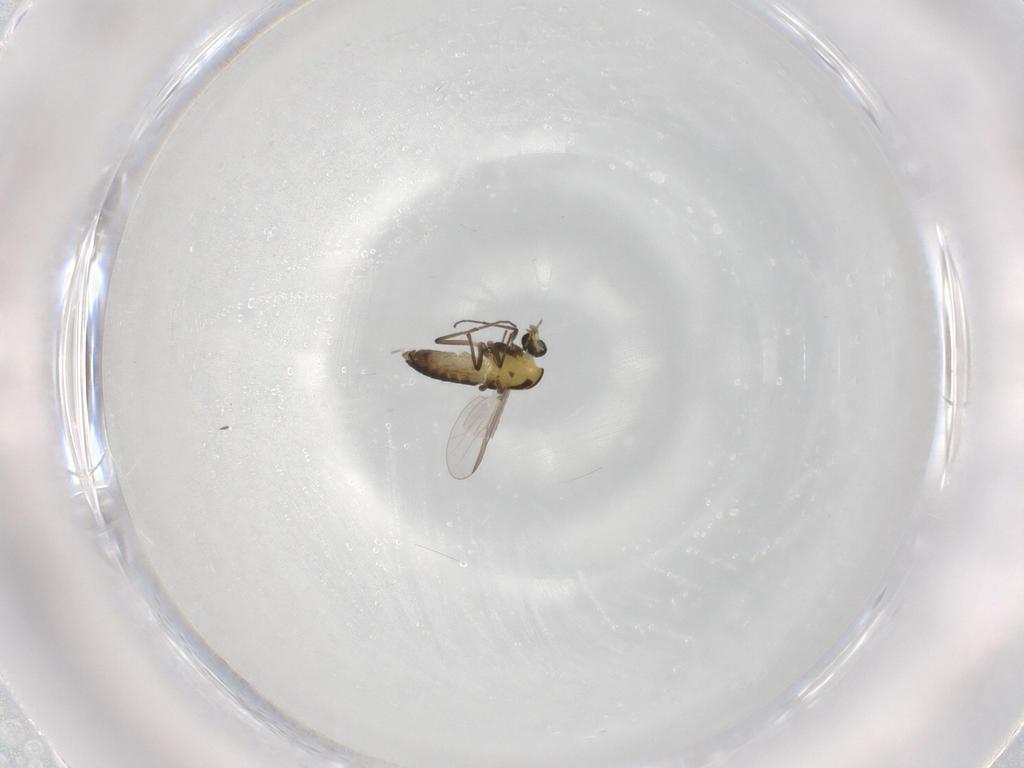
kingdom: Animalia
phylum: Arthropoda
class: Insecta
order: Diptera
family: Chironomidae
